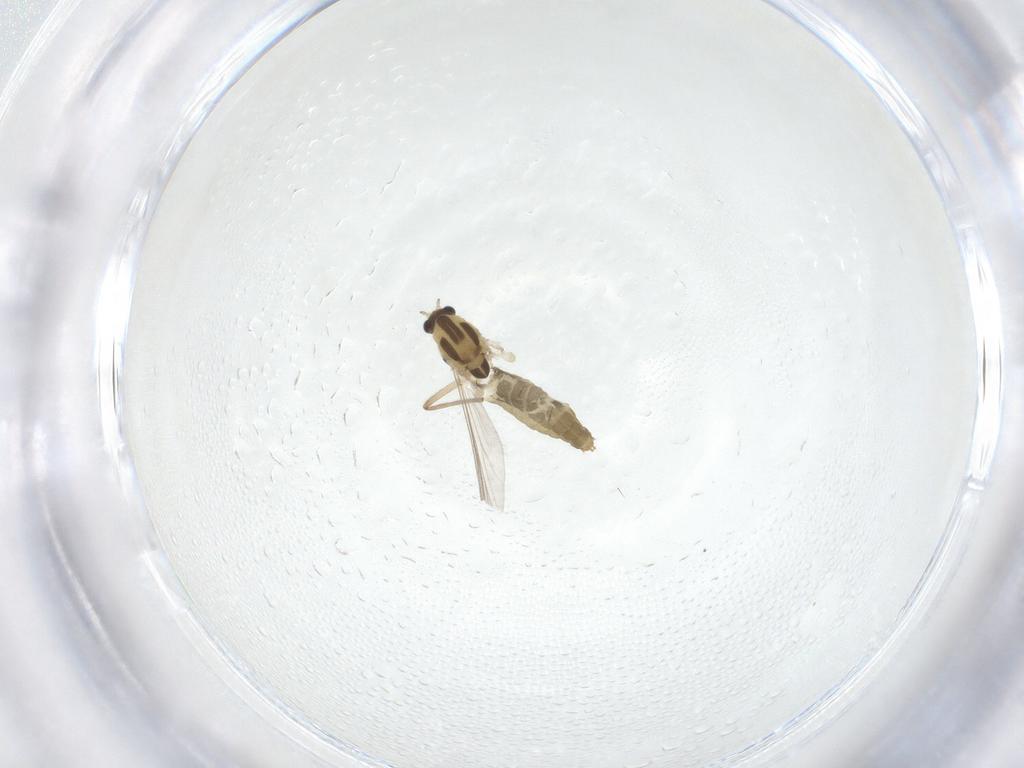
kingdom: Animalia
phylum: Arthropoda
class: Insecta
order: Diptera
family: Chironomidae
